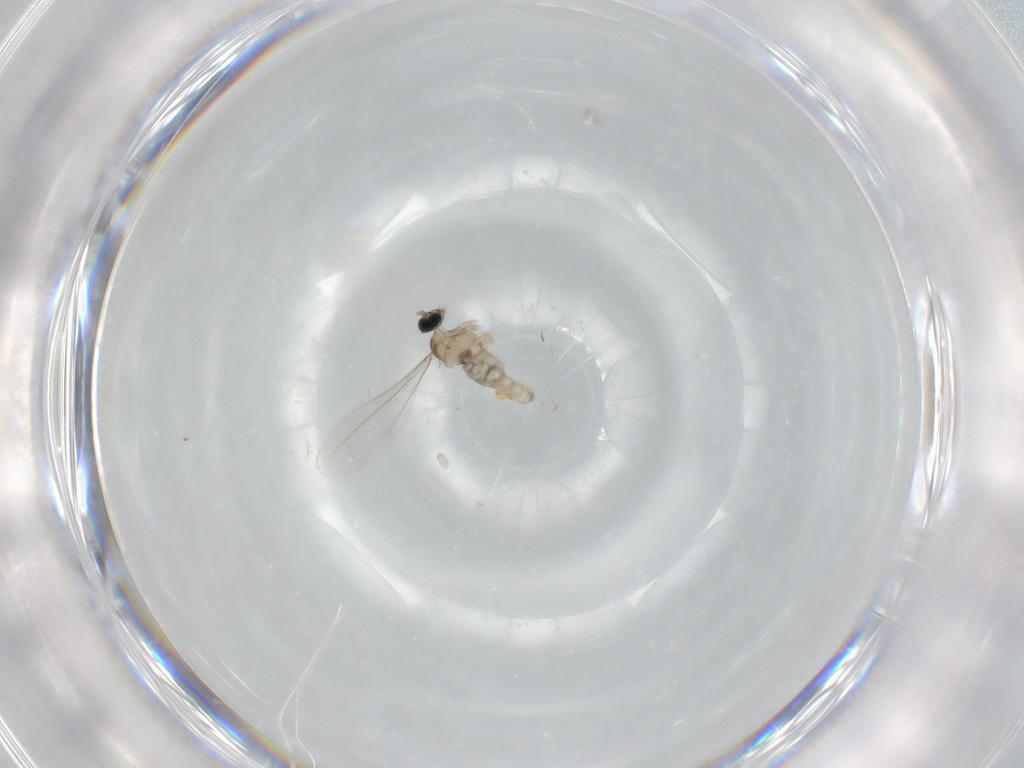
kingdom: Animalia
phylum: Arthropoda
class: Insecta
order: Diptera
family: Cecidomyiidae
